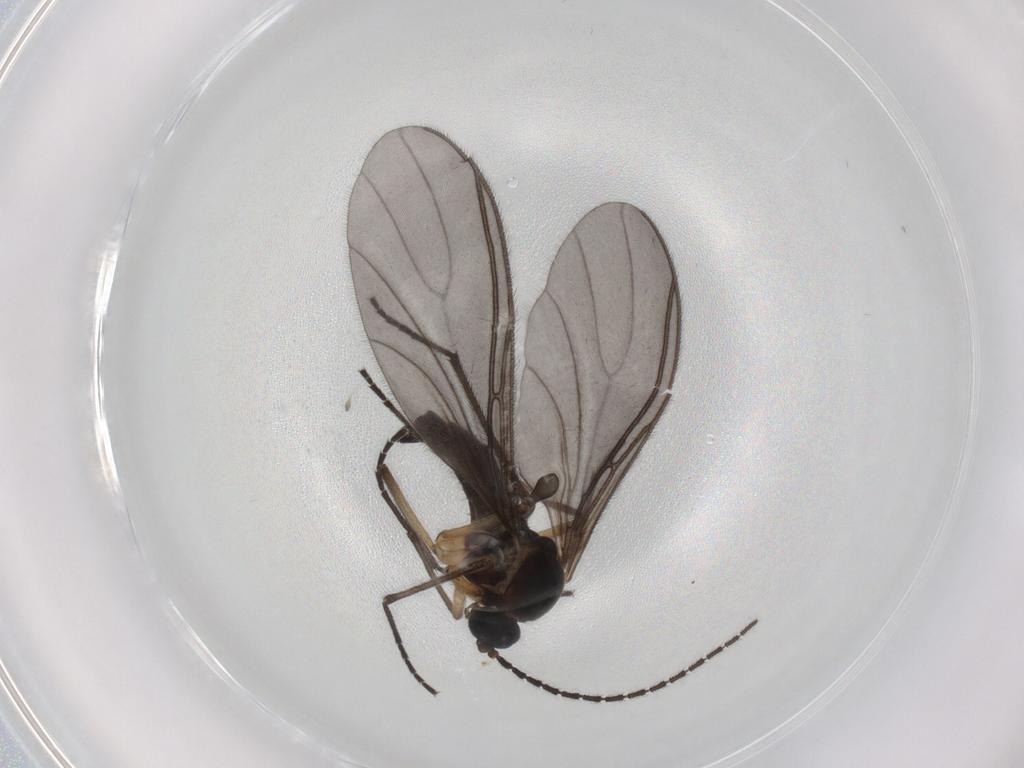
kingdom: Animalia
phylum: Arthropoda
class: Insecta
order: Diptera
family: Sciaridae
